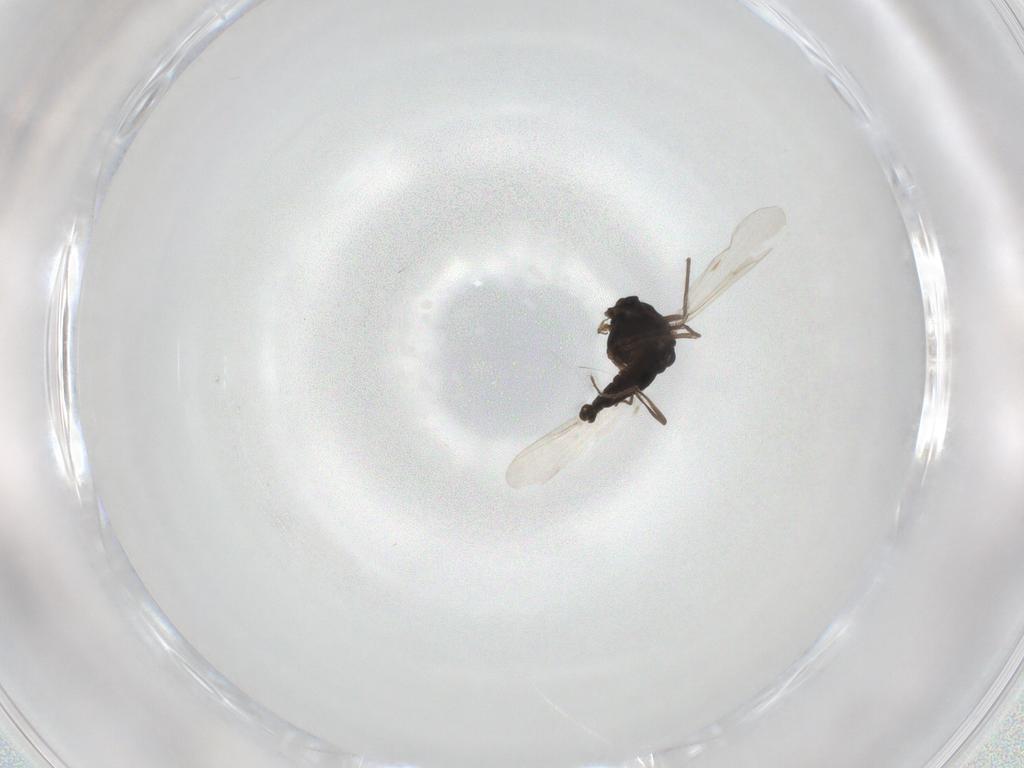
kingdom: Animalia
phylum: Arthropoda
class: Insecta
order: Diptera
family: Chironomidae
